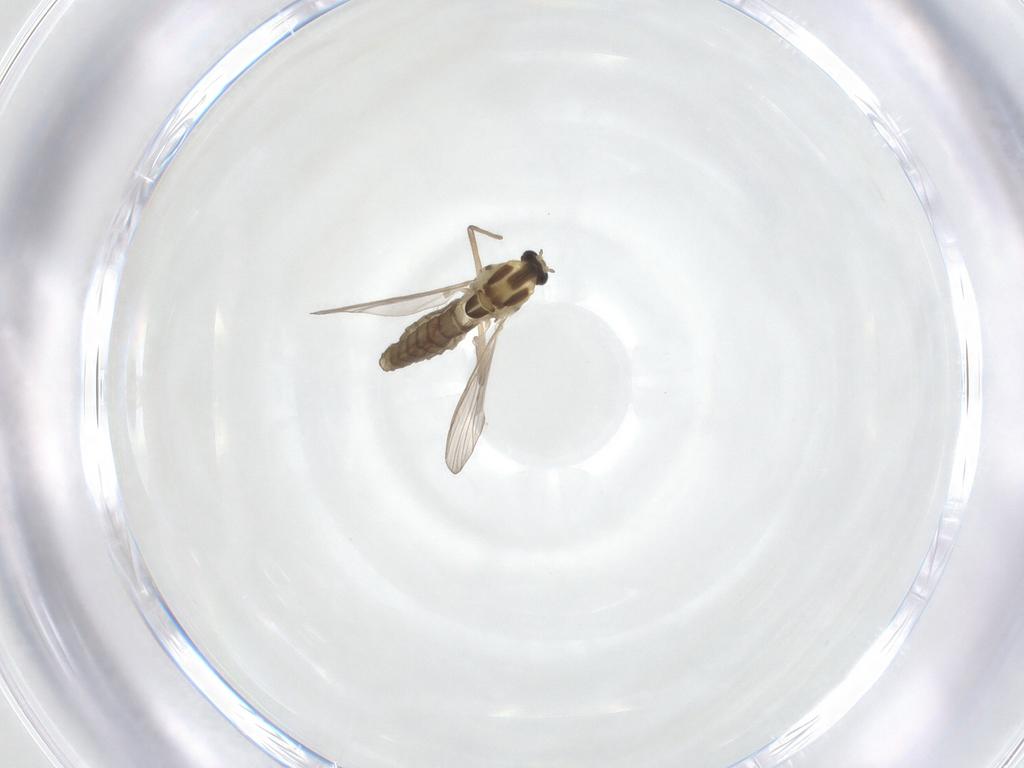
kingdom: Animalia
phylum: Arthropoda
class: Insecta
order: Diptera
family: Chironomidae
